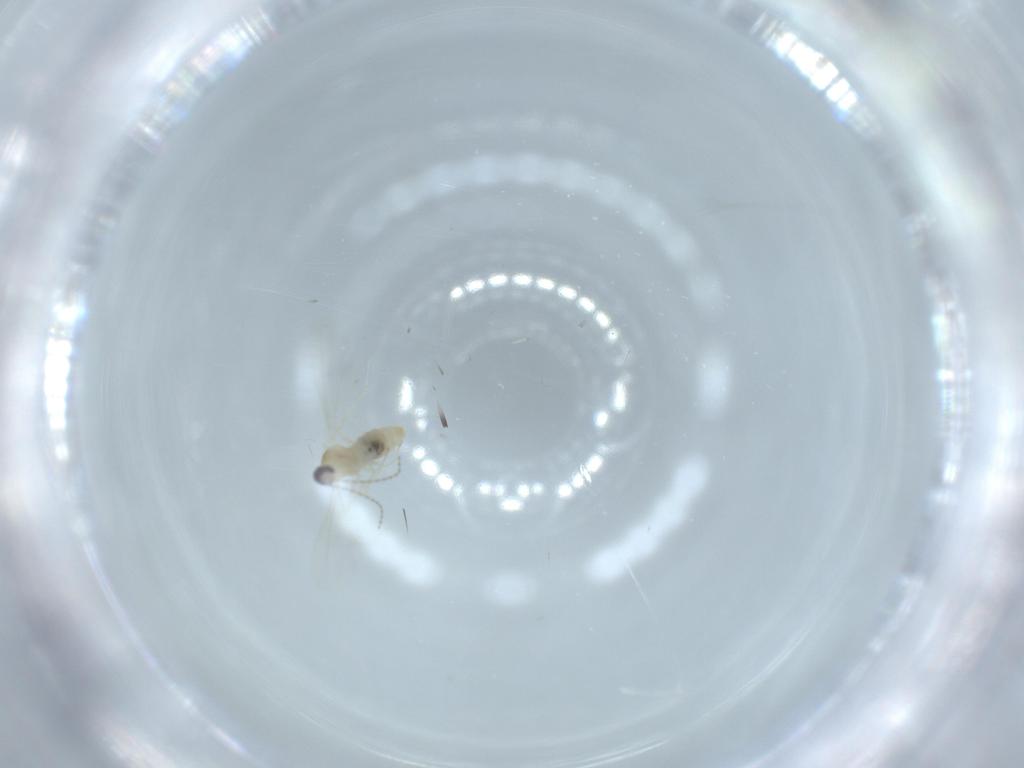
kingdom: Animalia
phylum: Arthropoda
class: Insecta
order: Diptera
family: Cecidomyiidae
